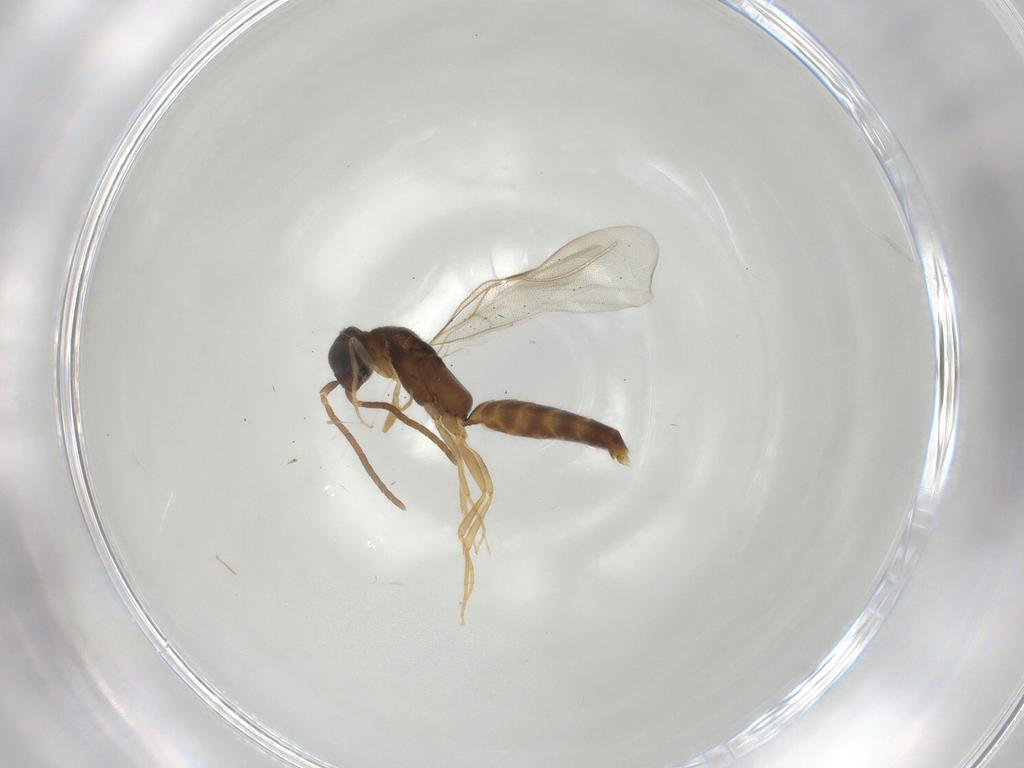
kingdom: Animalia
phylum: Arthropoda
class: Insecta
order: Hymenoptera
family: Bethylidae
